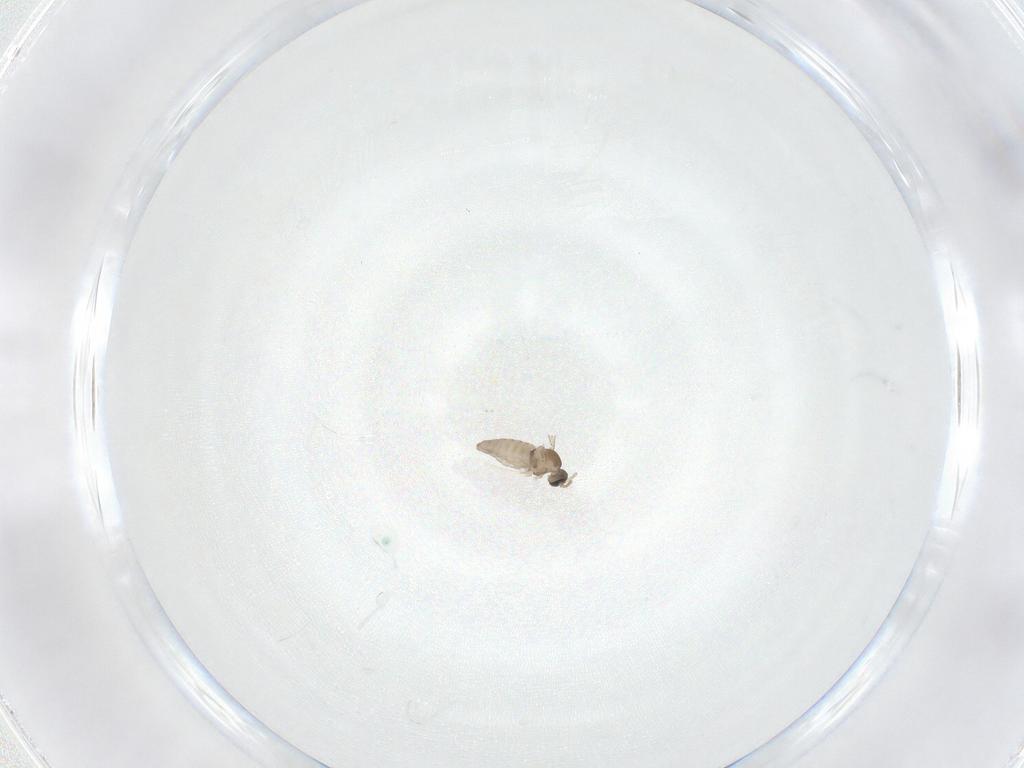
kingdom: Animalia
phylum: Arthropoda
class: Insecta
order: Diptera
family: Cecidomyiidae
